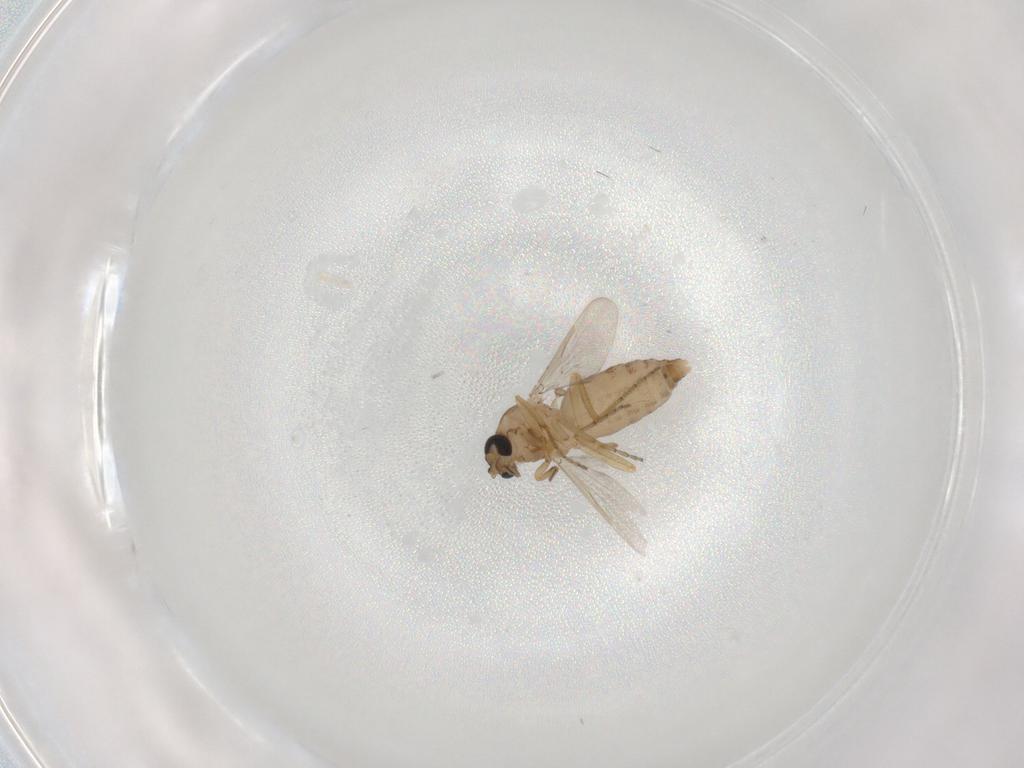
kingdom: Animalia
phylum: Arthropoda
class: Insecta
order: Diptera
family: Ceratopogonidae
